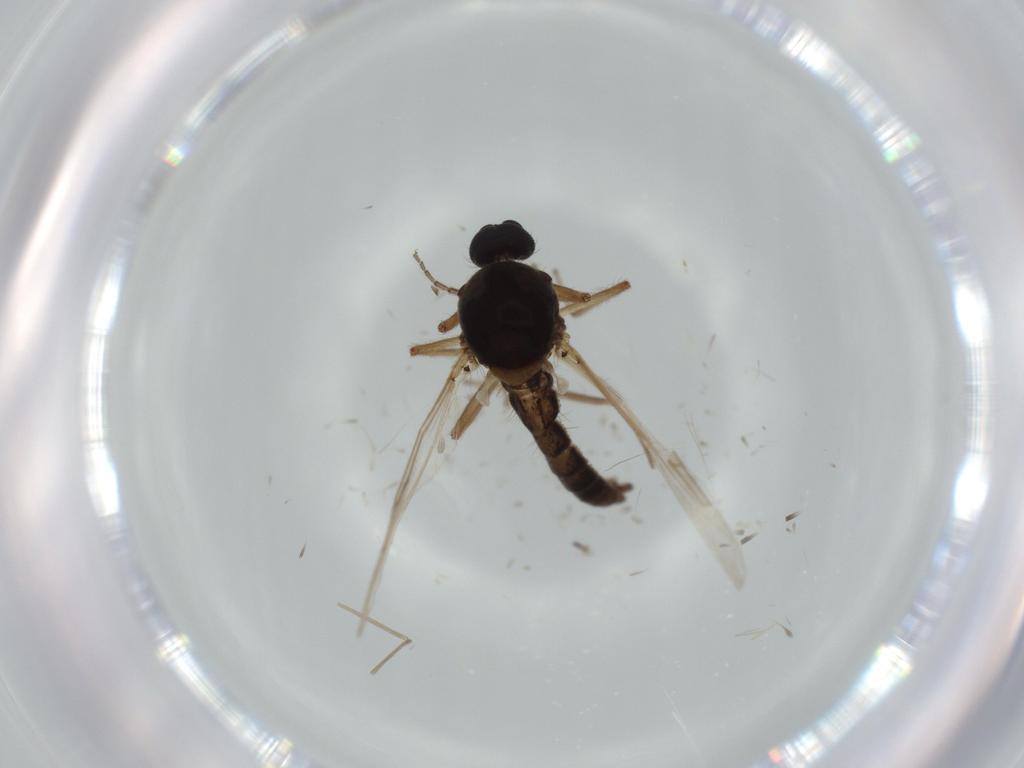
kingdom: Animalia
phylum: Arthropoda
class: Insecta
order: Diptera
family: Ceratopogonidae
